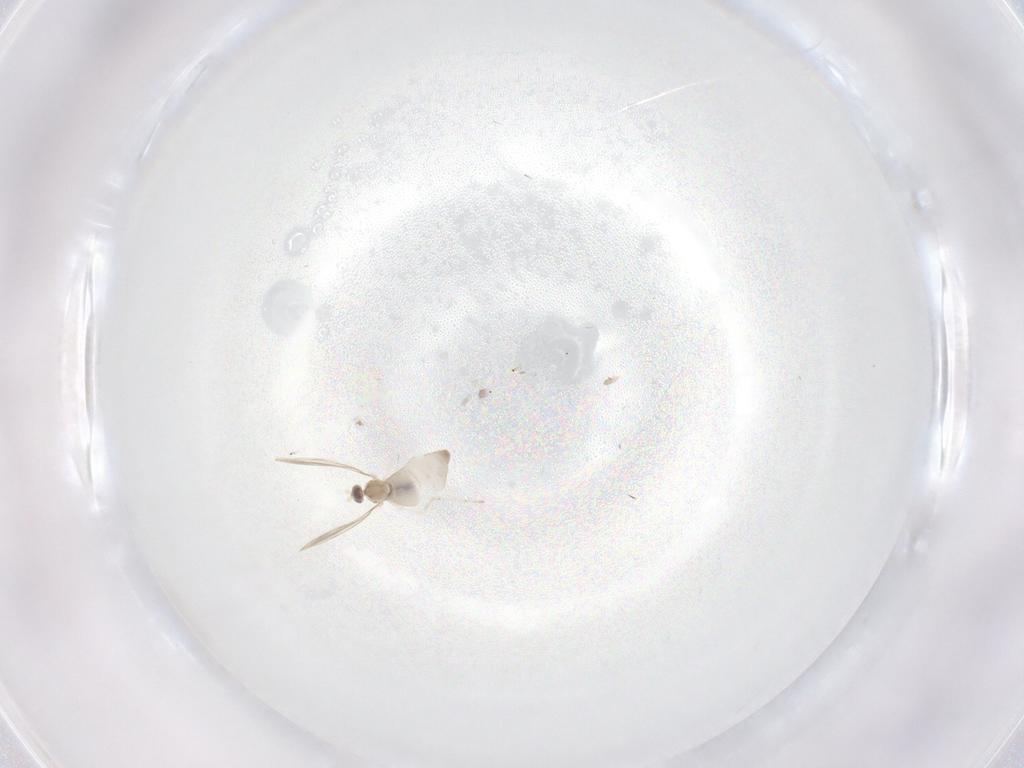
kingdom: Animalia
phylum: Arthropoda
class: Insecta
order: Diptera
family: Cecidomyiidae
